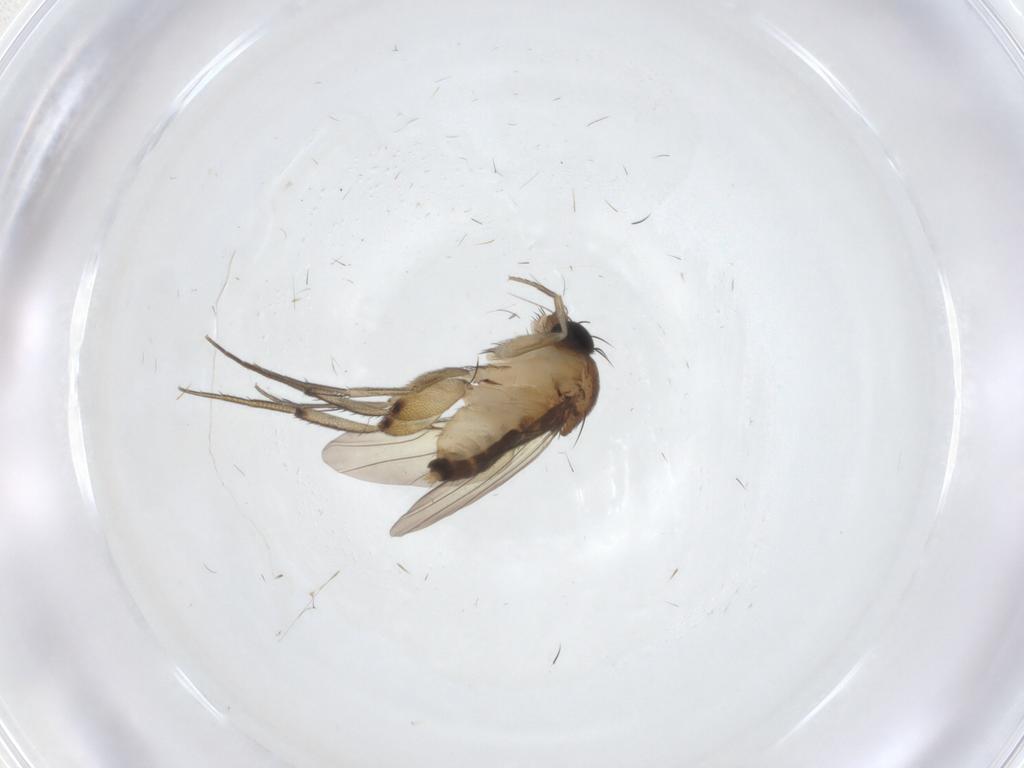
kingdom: Animalia
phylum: Arthropoda
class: Insecta
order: Diptera
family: Phoridae
